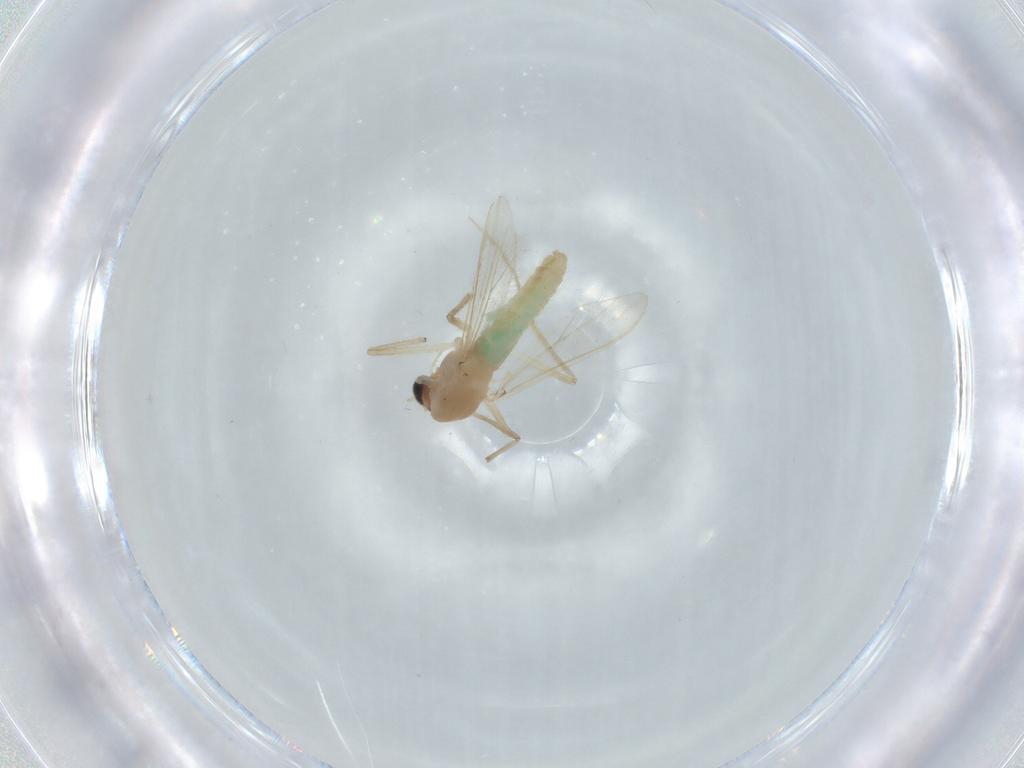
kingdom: Animalia
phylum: Arthropoda
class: Insecta
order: Diptera
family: Chironomidae
